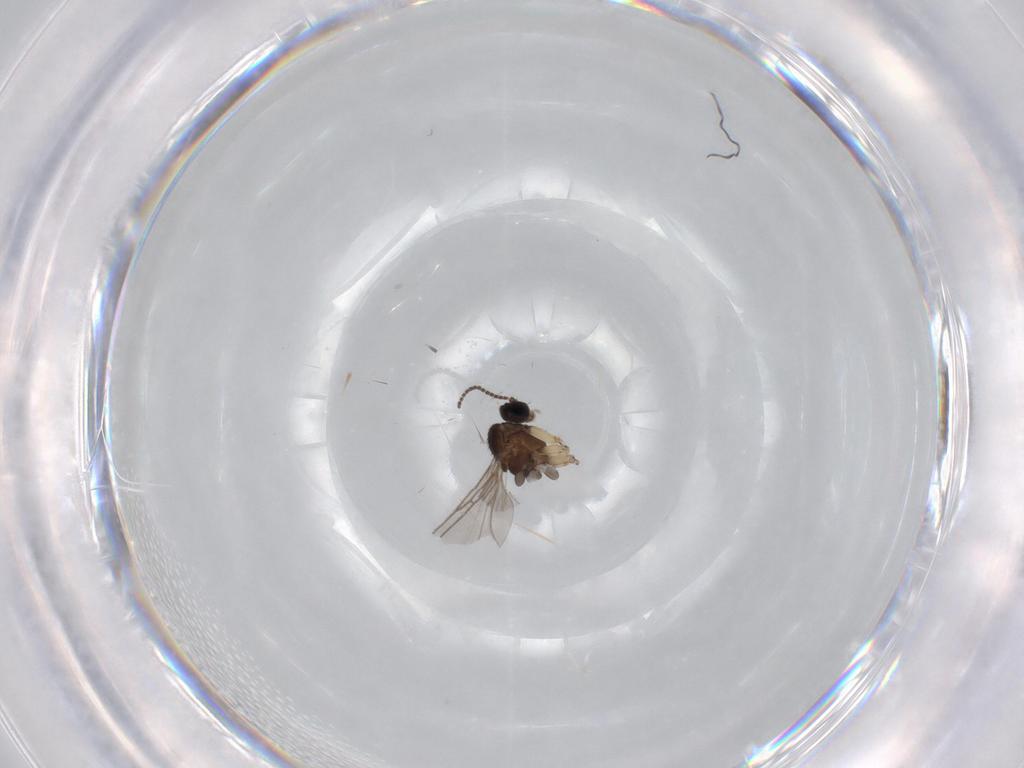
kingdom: Animalia
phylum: Arthropoda
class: Insecta
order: Diptera
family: Sciaridae
